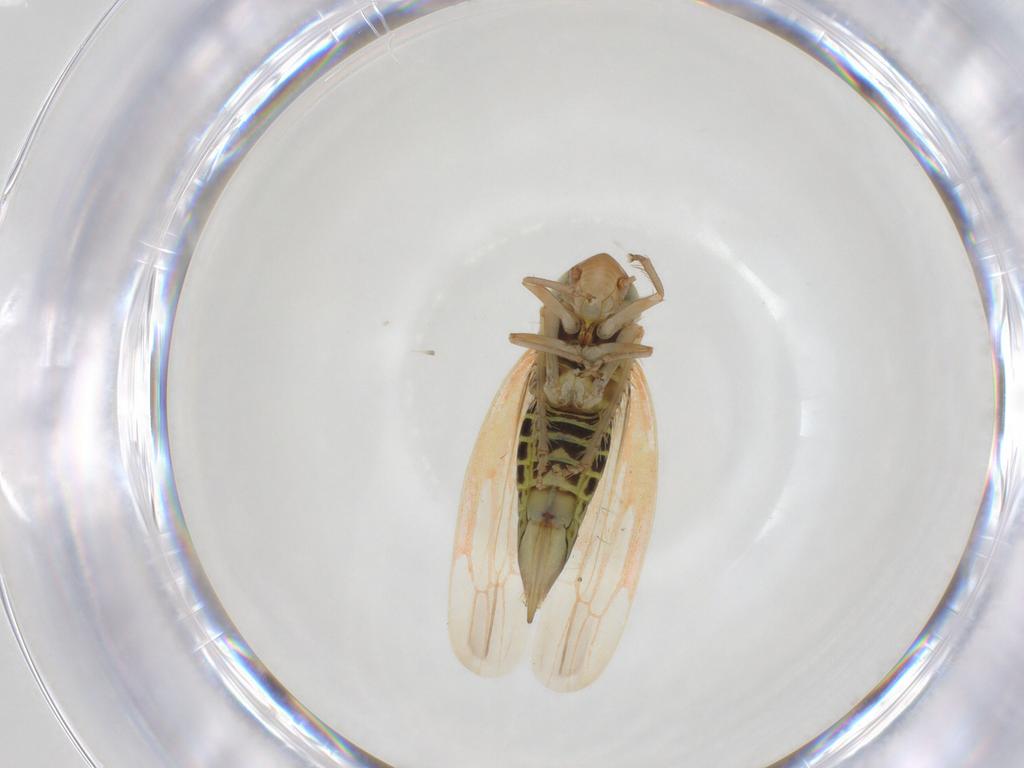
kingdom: Animalia
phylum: Arthropoda
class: Insecta
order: Hemiptera
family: Cicadellidae
